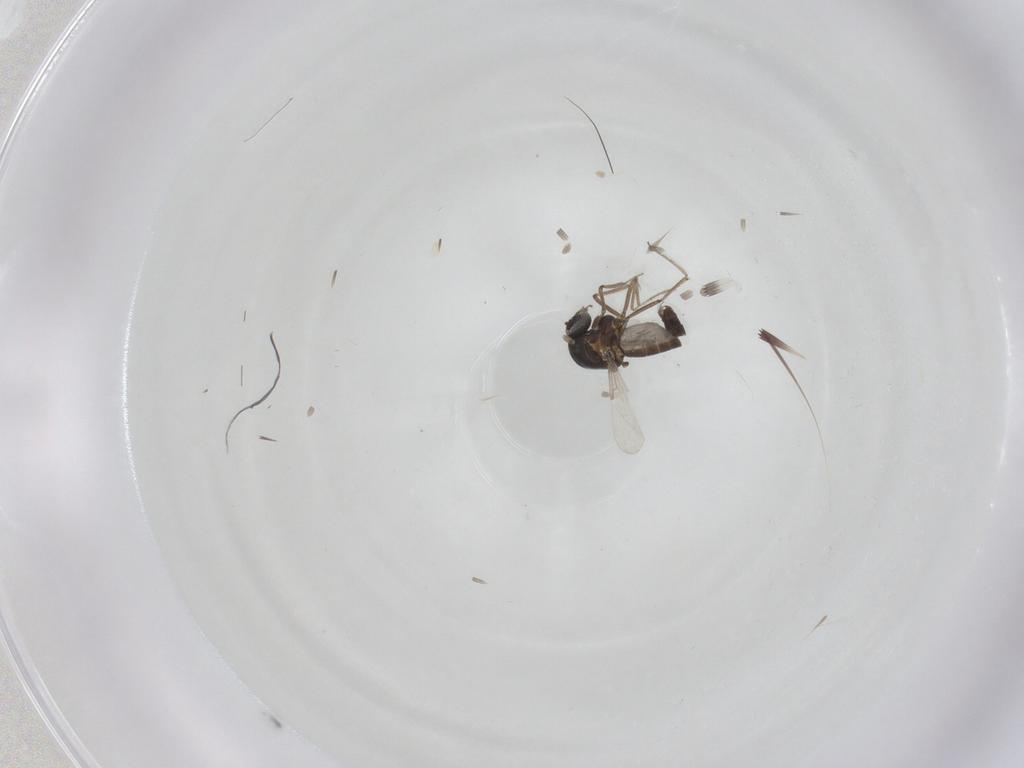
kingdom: Animalia
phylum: Arthropoda
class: Insecta
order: Diptera
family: Ceratopogonidae
